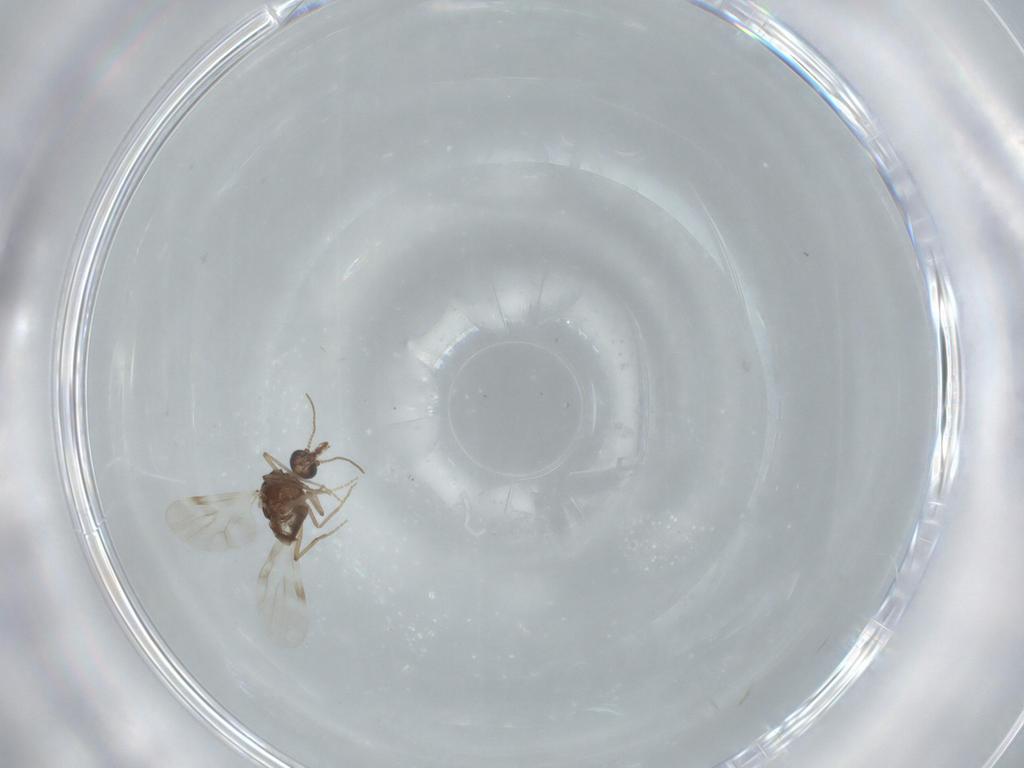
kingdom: Animalia
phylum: Arthropoda
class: Insecta
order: Diptera
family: Ceratopogonidae
